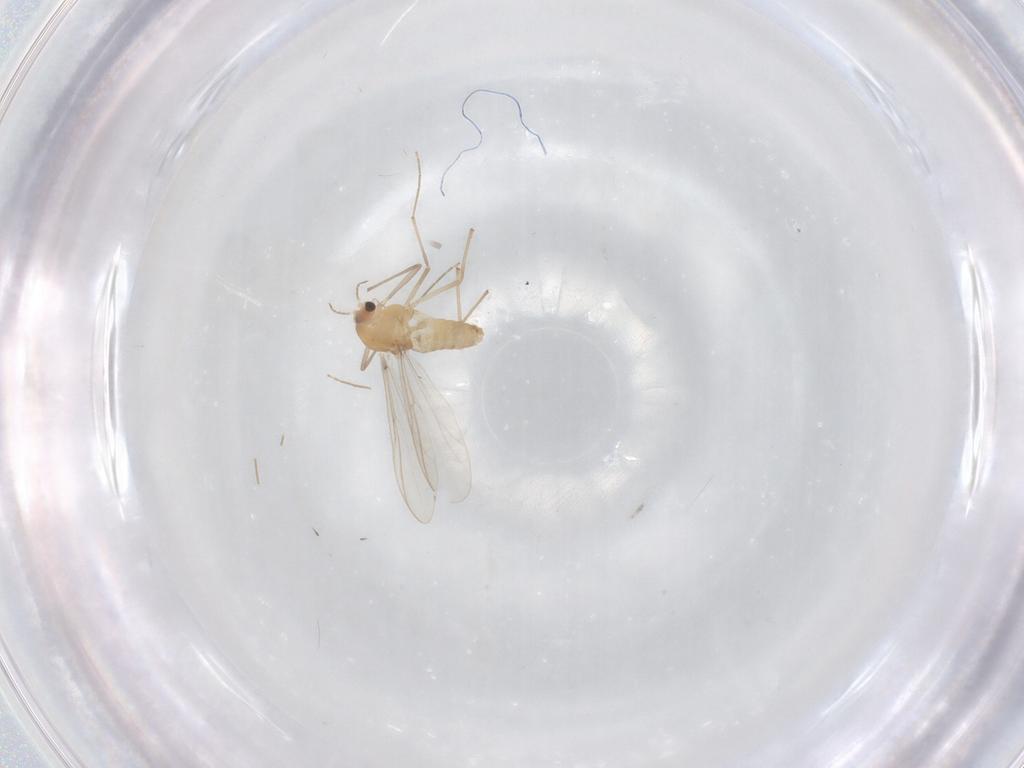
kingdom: Animalia
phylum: Arthropoda
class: Insecta
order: Diptera
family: Chironomidae
